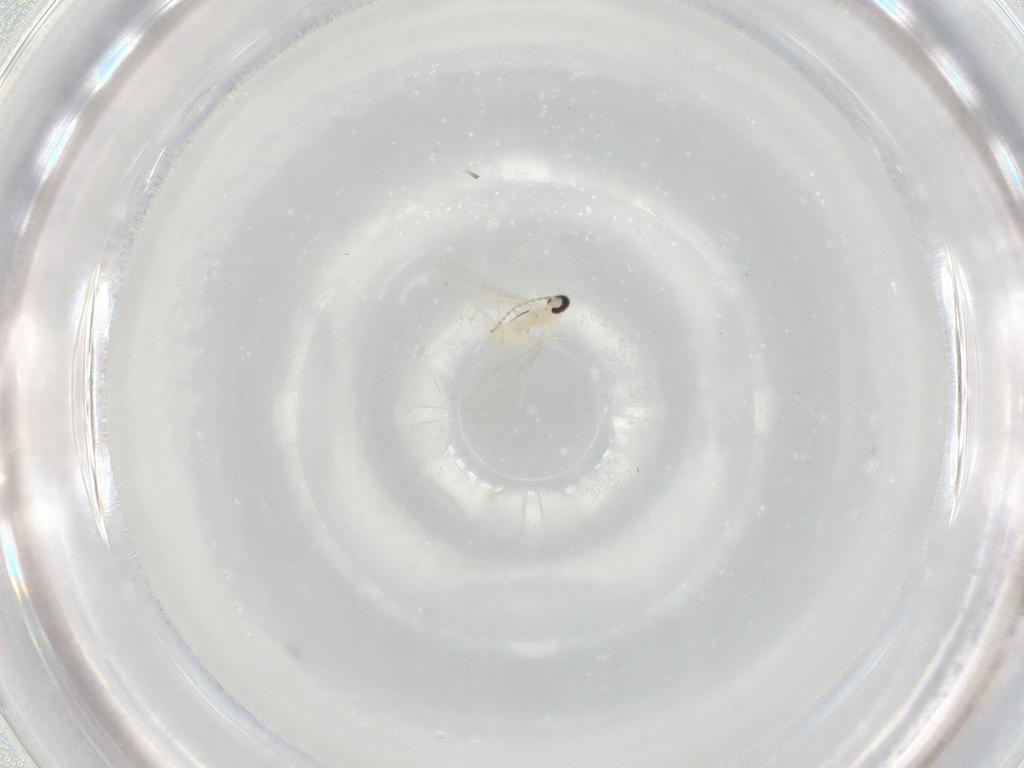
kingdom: Animalia
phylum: Arthropoda
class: Insecta
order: Diptera
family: Cecidomyiidae
